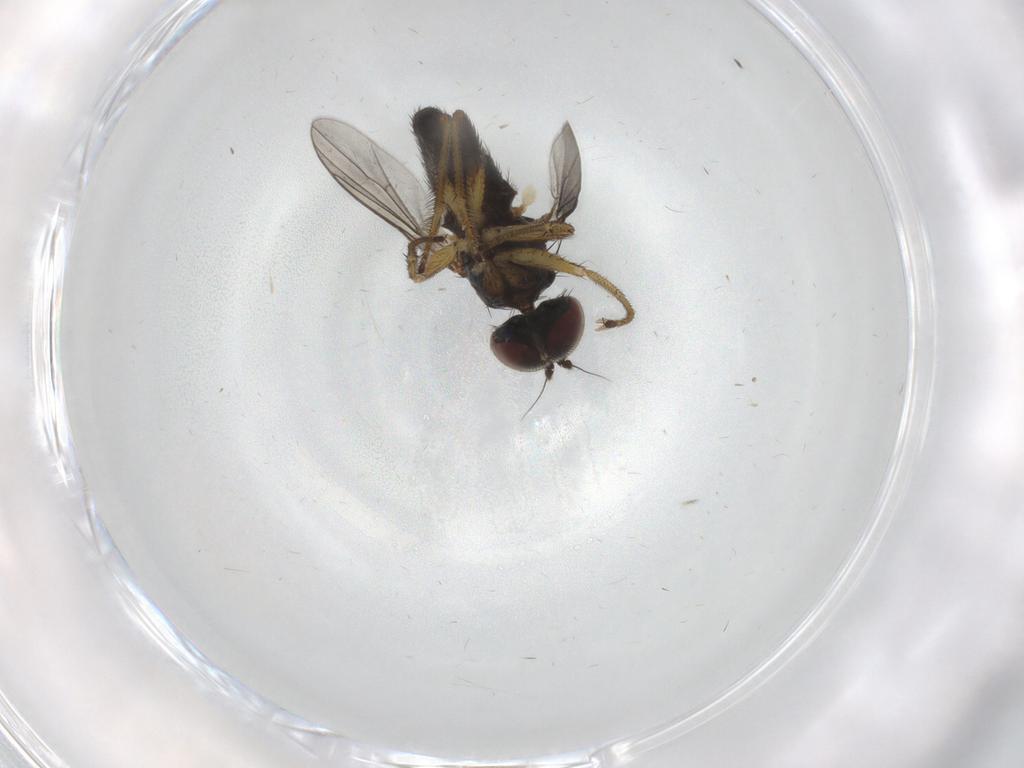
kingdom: Animalia
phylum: Arthropoda
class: Insecta
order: Diptera
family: Dolichopodidae
